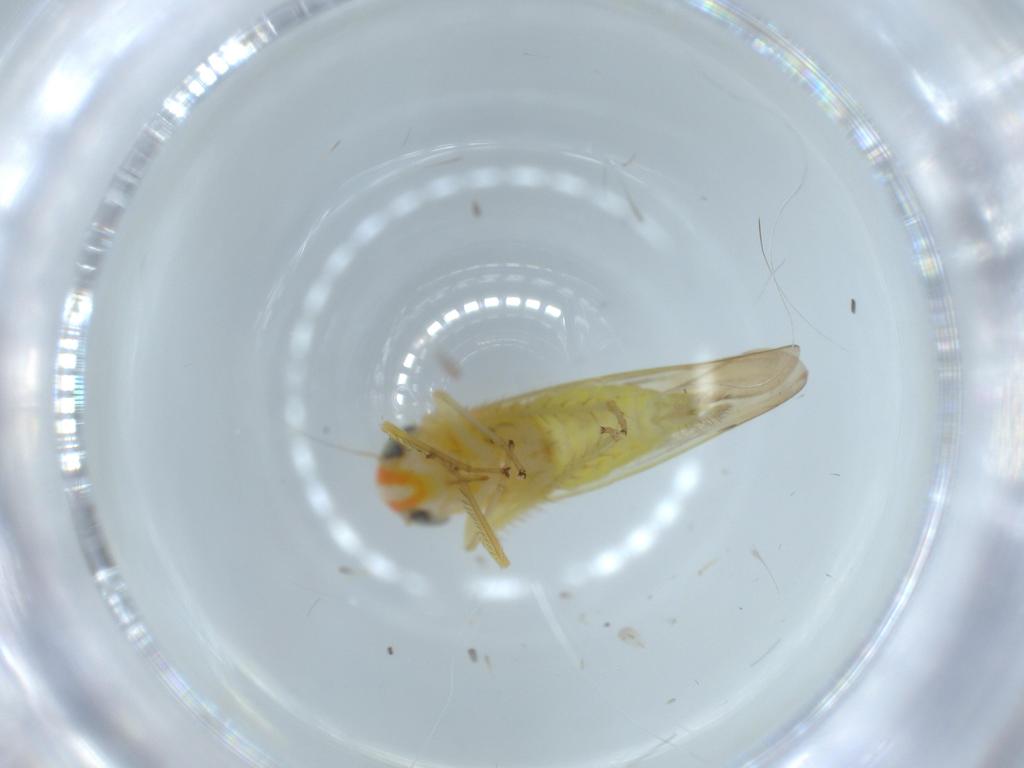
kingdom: Animalia
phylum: Arthropoda
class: Insecta
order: Hemiptera
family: Cicadellidae
